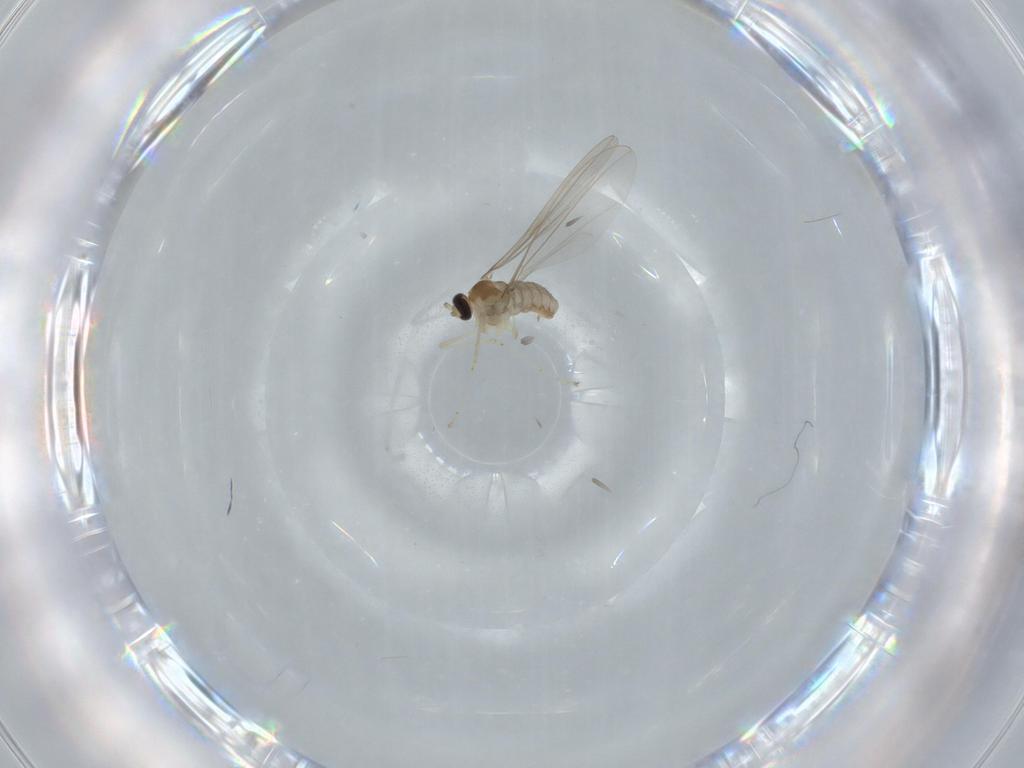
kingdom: Animalia
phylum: Arthropoda
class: Insecta
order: Diptera
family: Cecidomyiidae
